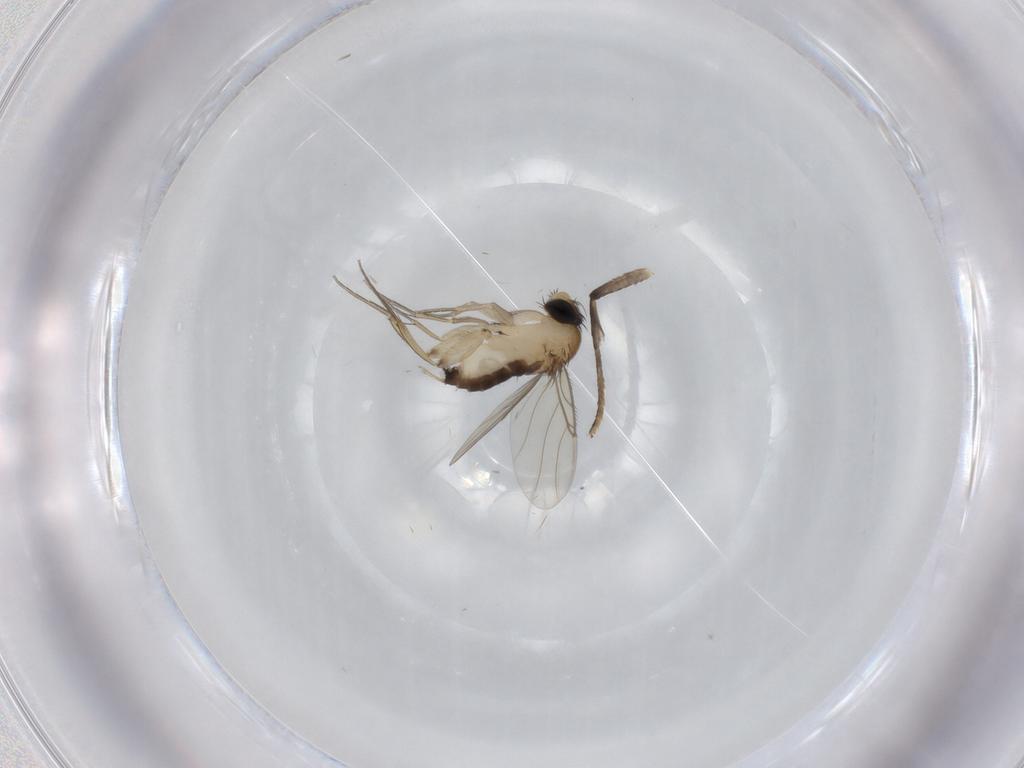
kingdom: Animalia
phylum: Arthropoda
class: Insecta
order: Diptera
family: Phoridae
